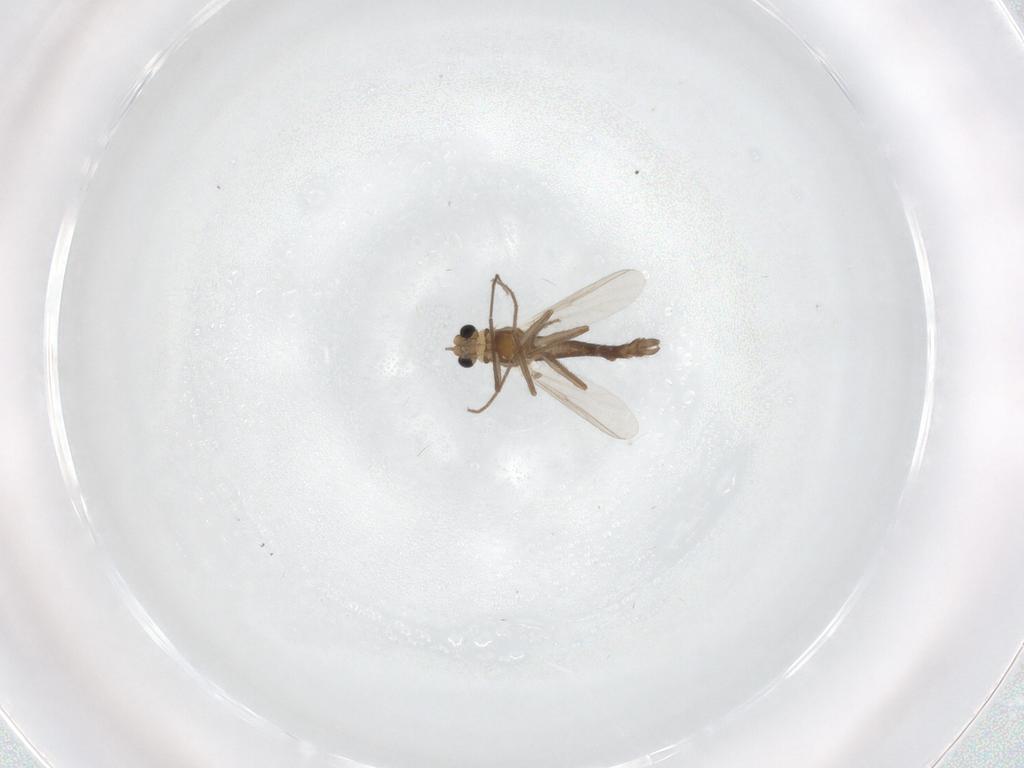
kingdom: Animalia
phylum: Arthropoda
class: Insecta
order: Diptera
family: Chironomidae
